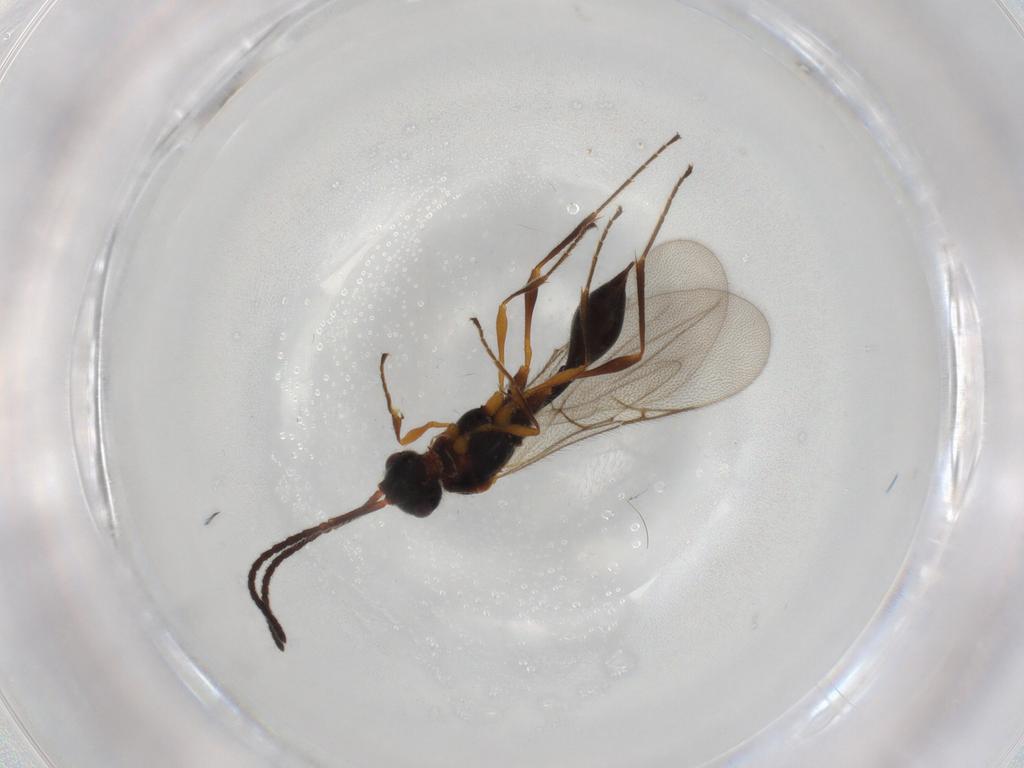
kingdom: Animalia
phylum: Arthropoda
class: Insecta
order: Hymenoptera
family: Diapriidae
